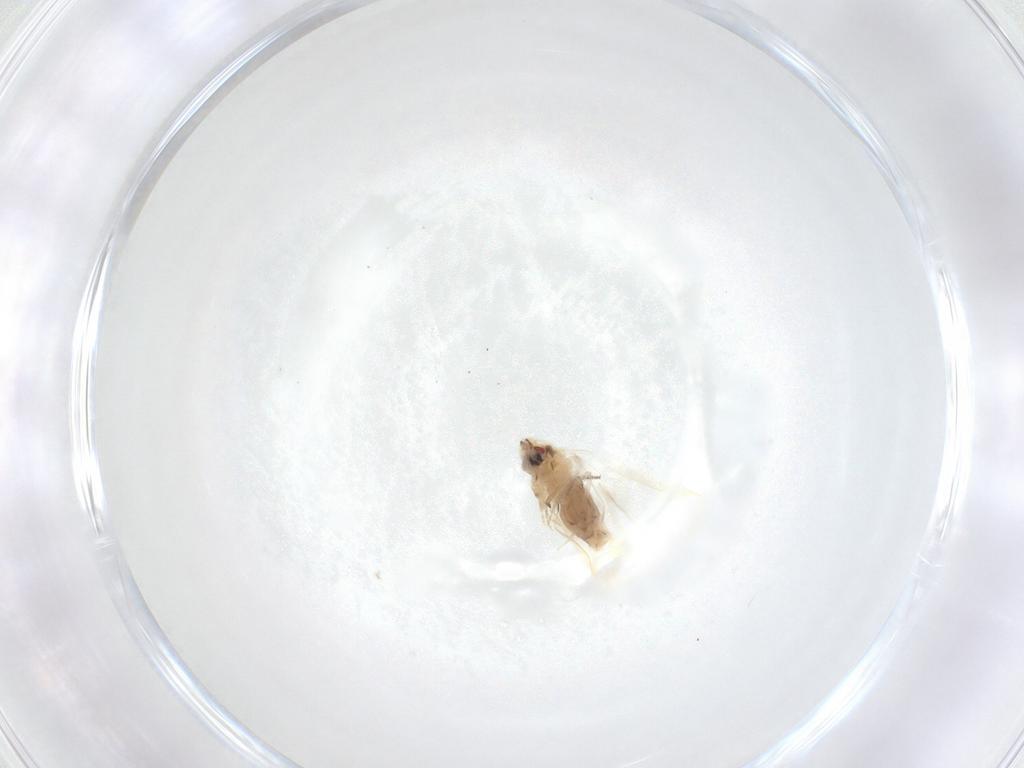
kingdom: Animalia
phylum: Arthropoda
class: Insecta
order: Hemiptera
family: Aleyrodidae
